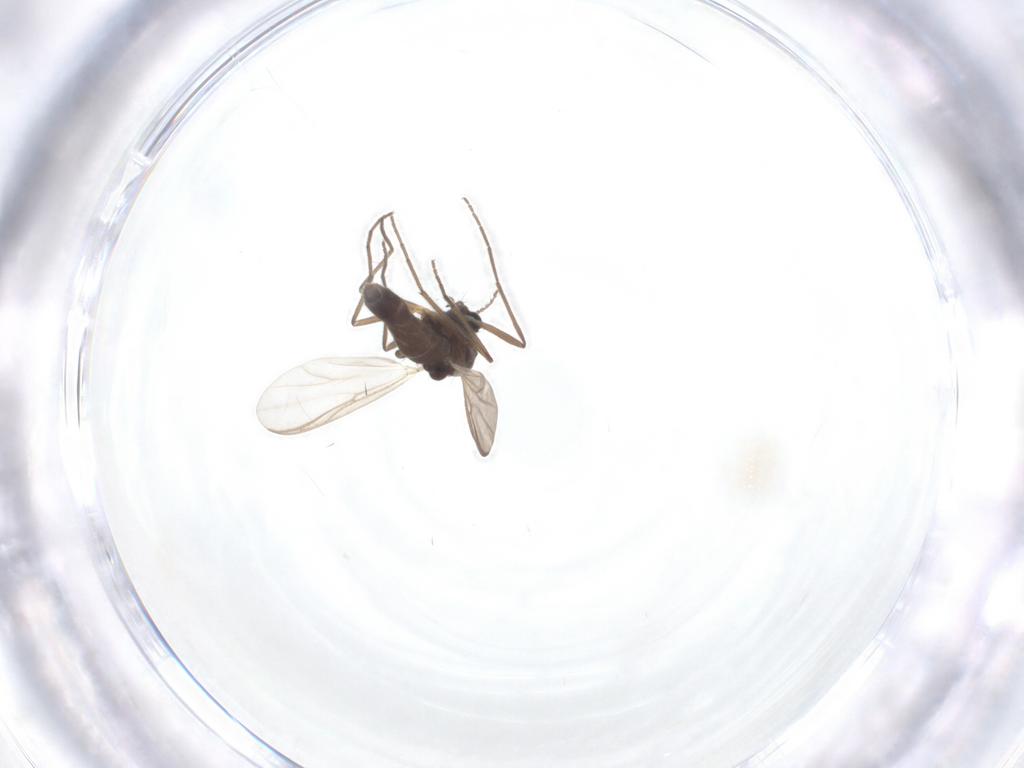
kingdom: Animalia
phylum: Arthropoda
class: Insecta
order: Diptera
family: Chironomidae
